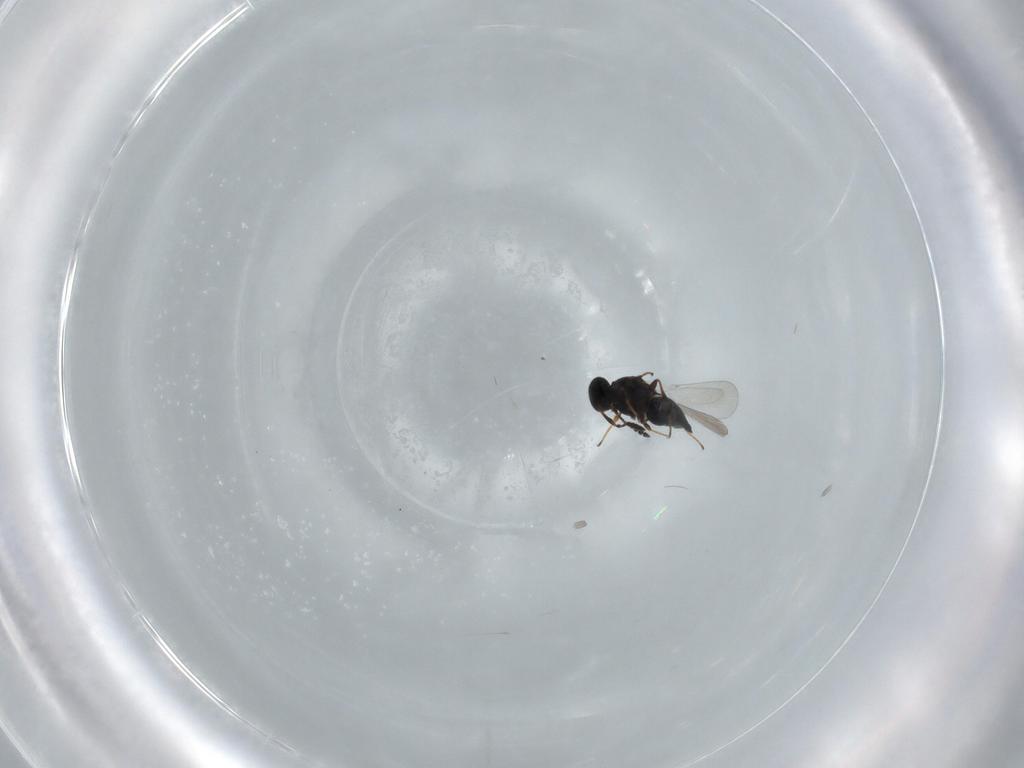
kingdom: Animalia
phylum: Arthropoda
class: Insecta
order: Hymenoptera
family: Platygastridae
